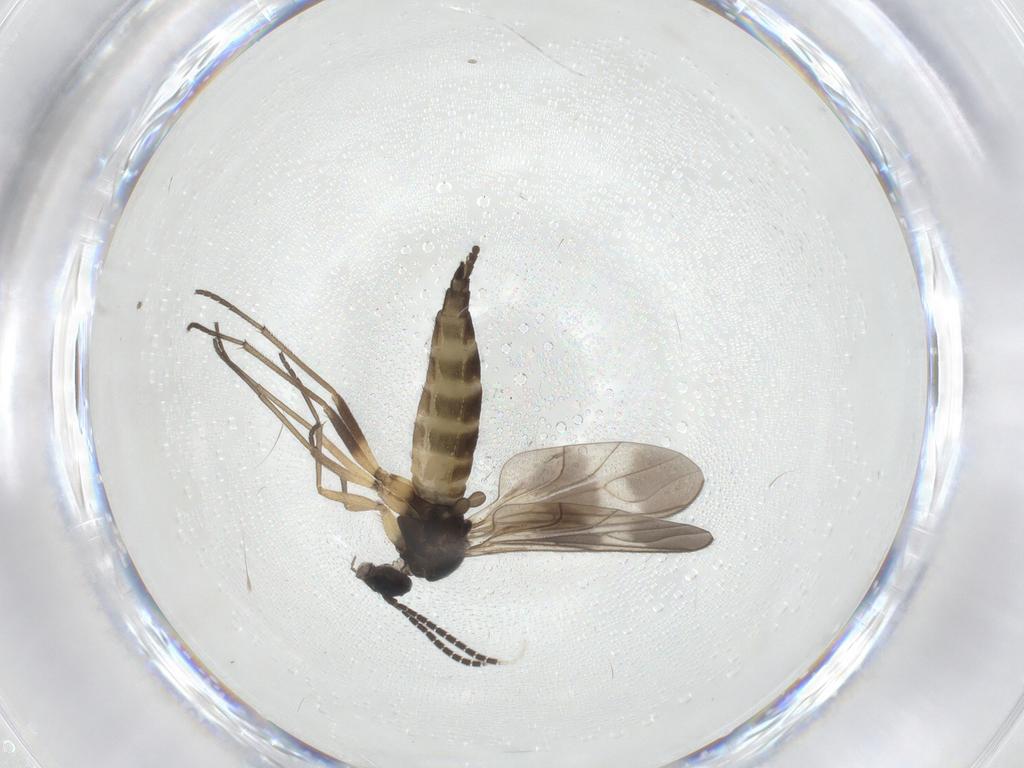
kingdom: Animalia
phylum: Arthropoda
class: Insecta
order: Diptera
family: Sciaridae
